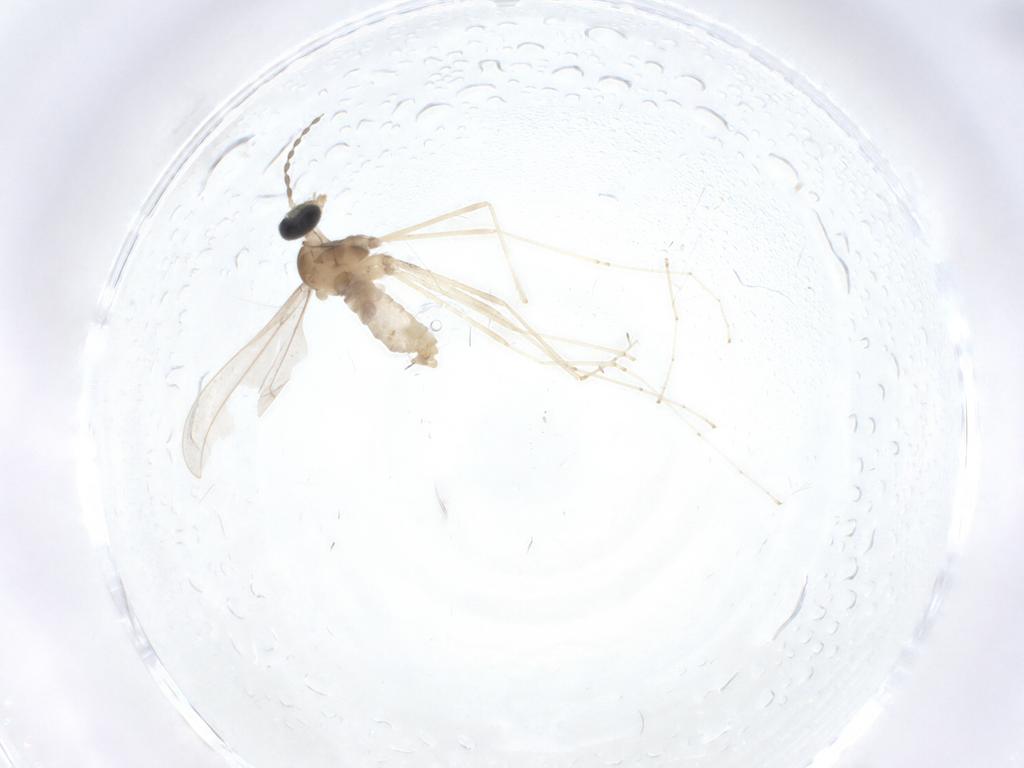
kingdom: Animalia
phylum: Arthropoda
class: Insecta
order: Diptera
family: Cecidomyiidae
